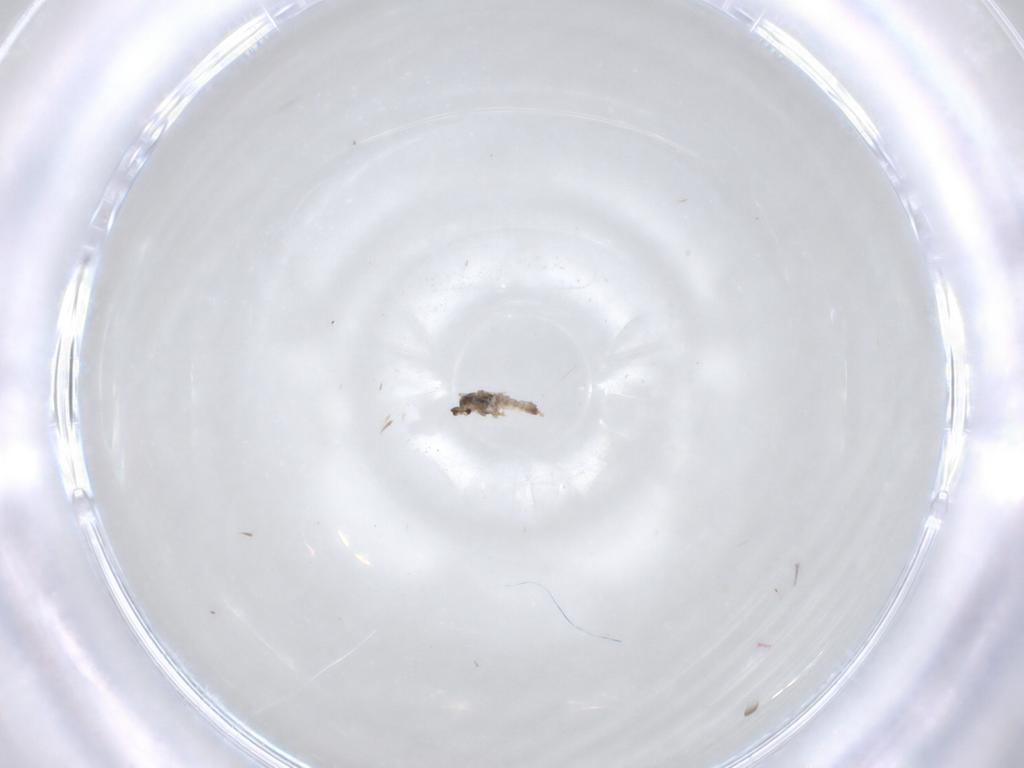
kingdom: Animalia
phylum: Arthropoda
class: Insecta
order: Diptera
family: Cecidomyiidae
